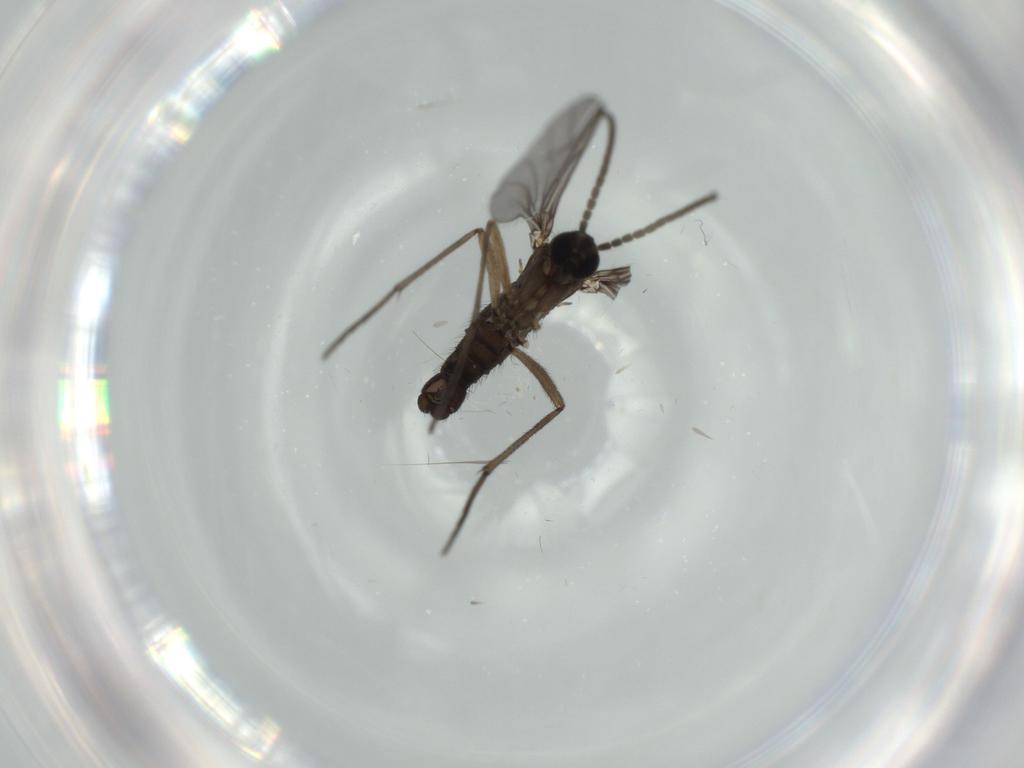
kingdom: Animalia
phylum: Arthropoda
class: Insecta
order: Diptera
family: Sciaridae
